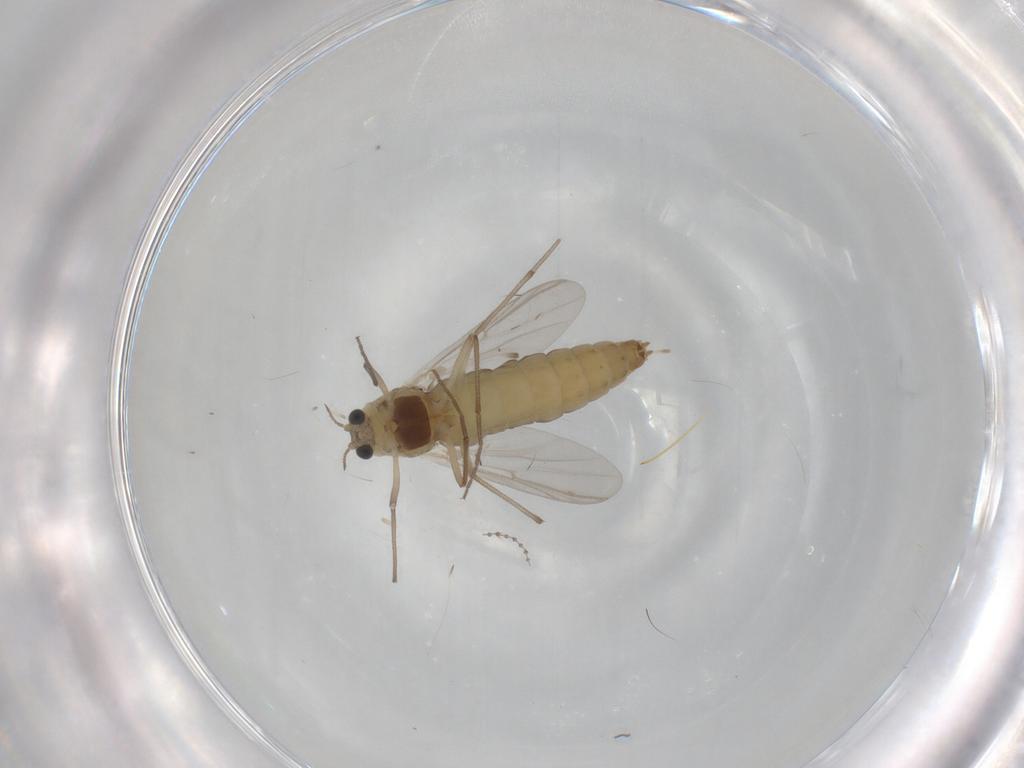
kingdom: Animalia
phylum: Arthropoda
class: Insecta
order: Diptera
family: Chironomidae
